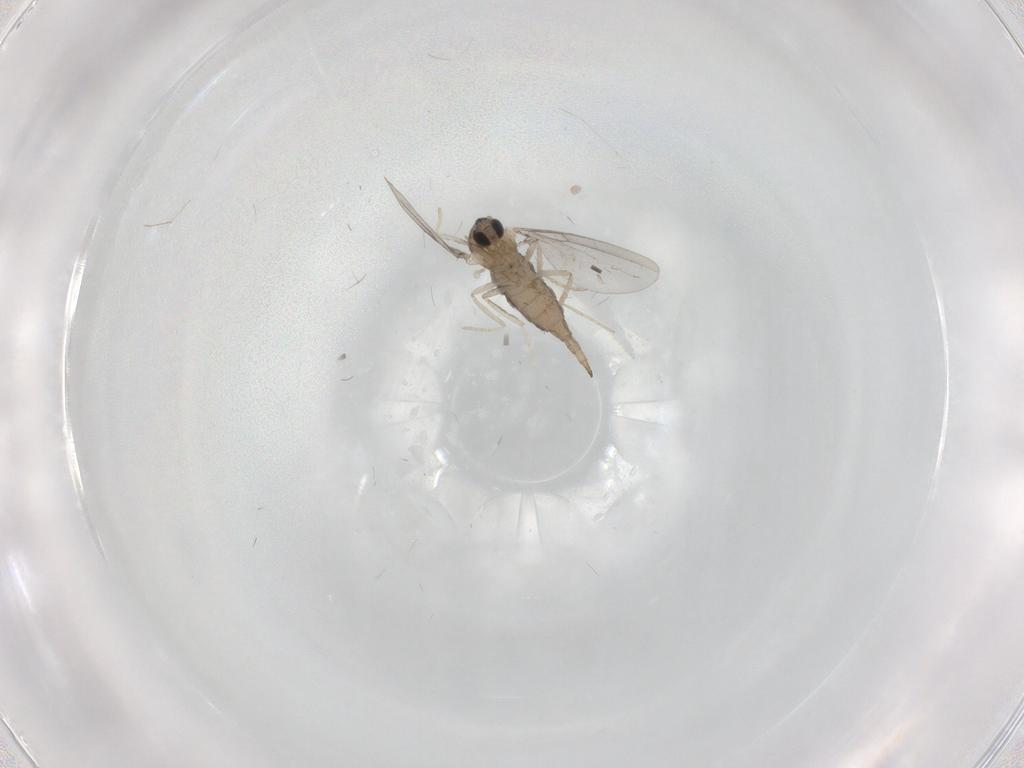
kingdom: Animalia
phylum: Arthropoda
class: Insecta
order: Diptera
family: Cecidomyiidae
